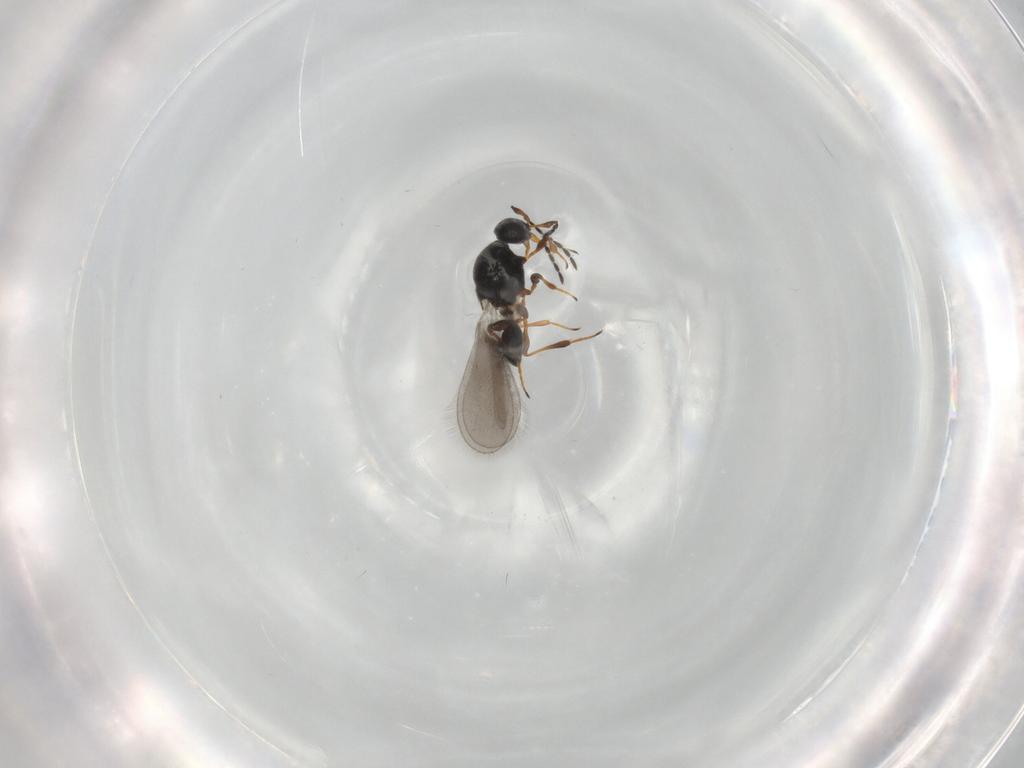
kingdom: Animalia
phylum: Arthropoda
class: Insecta
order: Hymenoptera
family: Platygastridae
